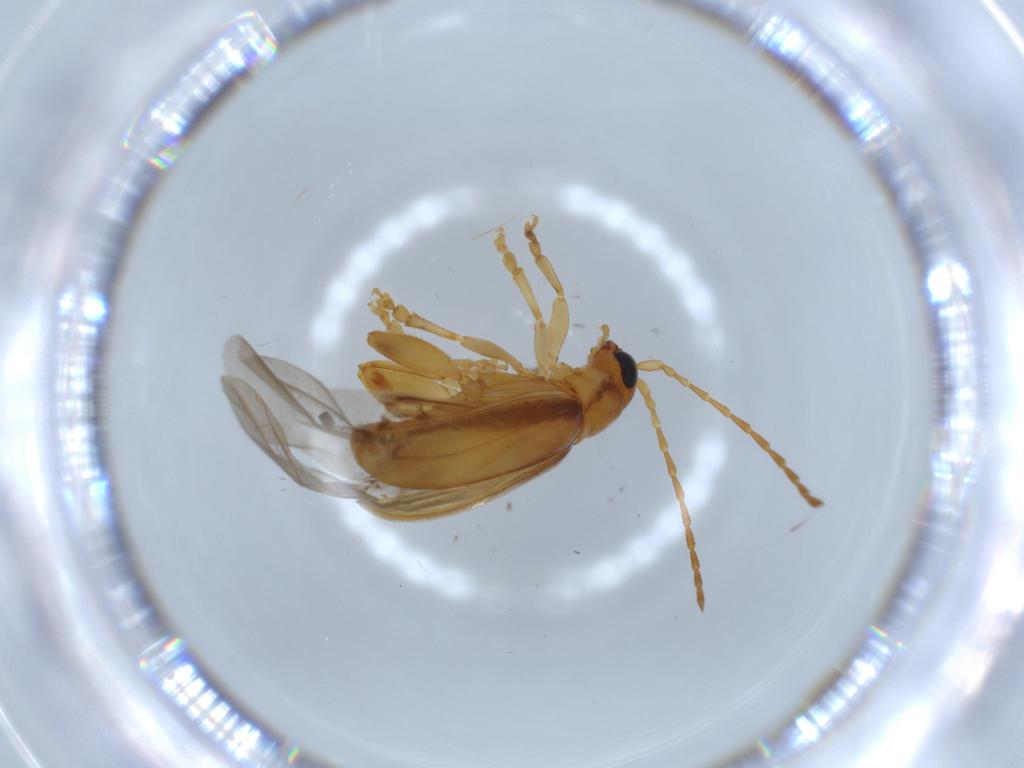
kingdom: Animalia
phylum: Arthropoda
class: Insecta
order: Coleoptera
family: Chrysomelidae
